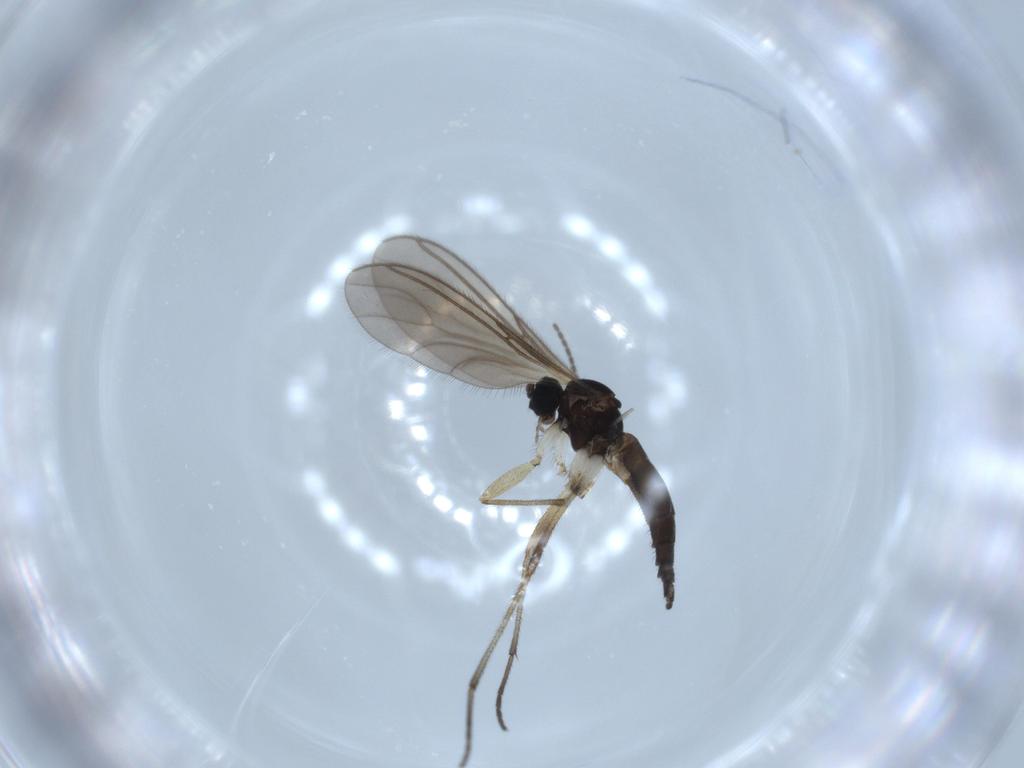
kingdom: Animalia
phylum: Arthropoda
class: Insecta
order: Diptera
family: Sciaridae
